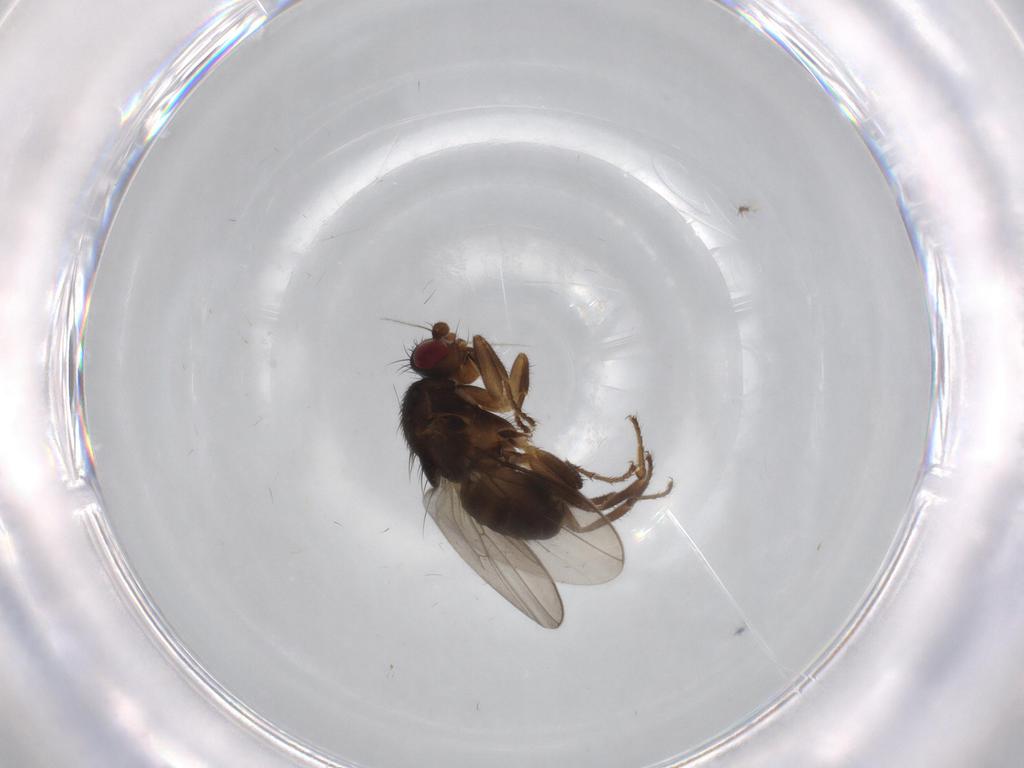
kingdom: Animalia
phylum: Arthropoda
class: Insecta
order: Diptera
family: Sphaeroceridae
